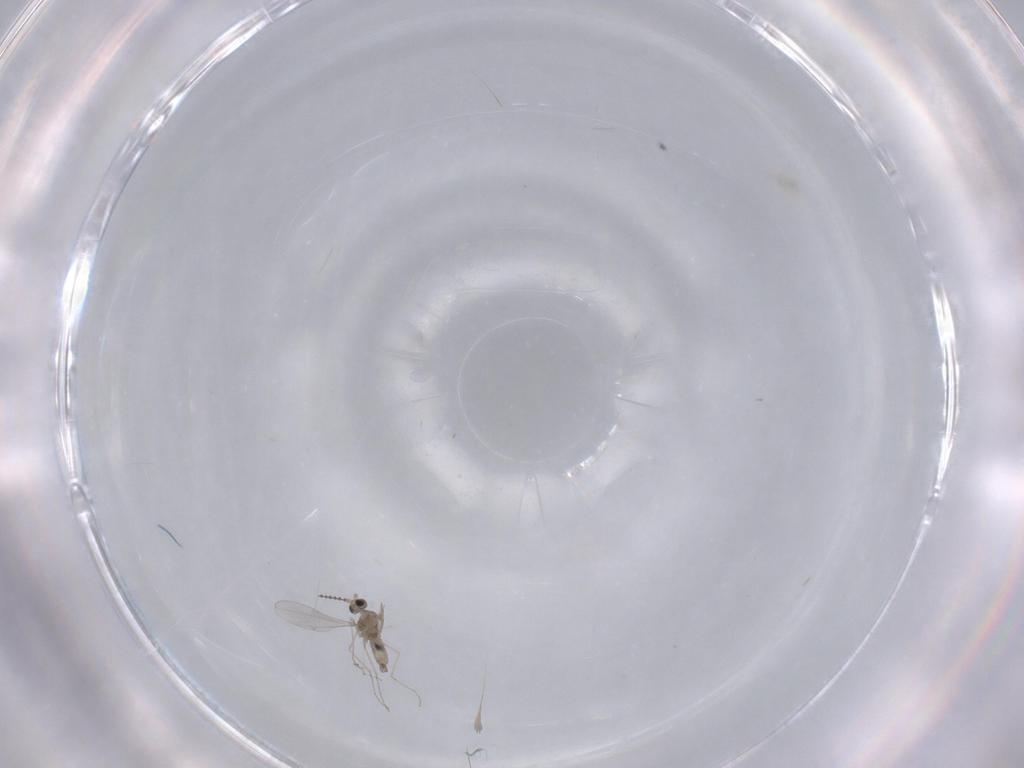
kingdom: Animalia
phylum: Arthropoda
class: Insecta
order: Diptera
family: Cecidomyiidae
